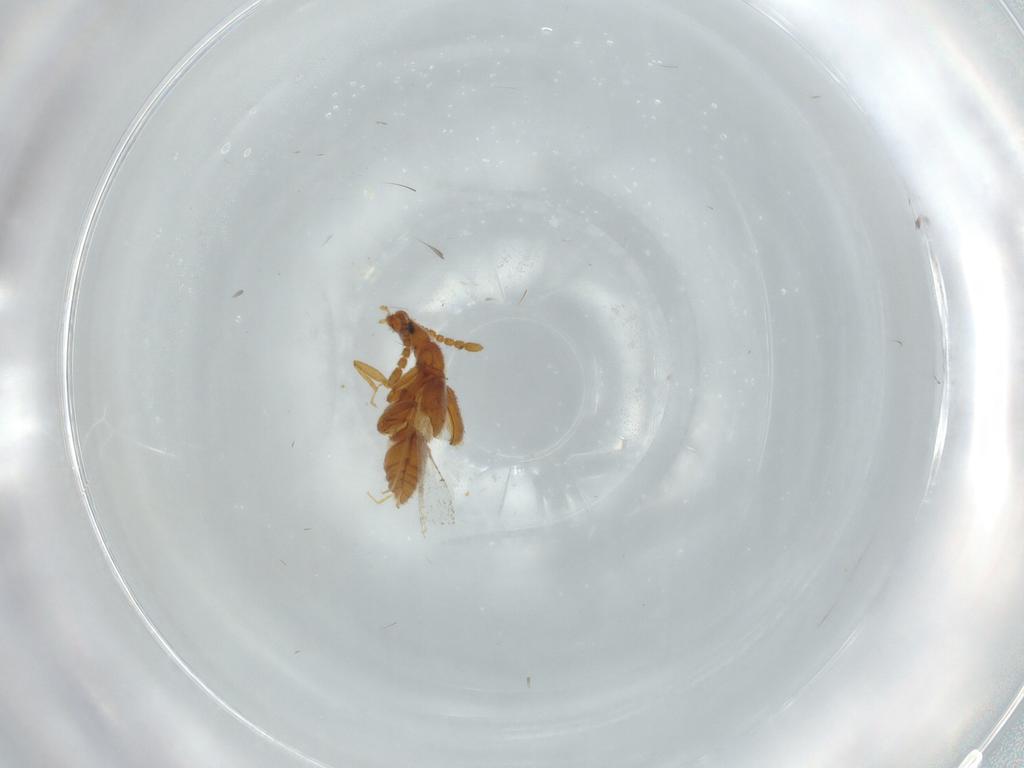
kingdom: Animalia
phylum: Arthropoda
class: Insecta
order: Coleoptera
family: Staphylinidae
